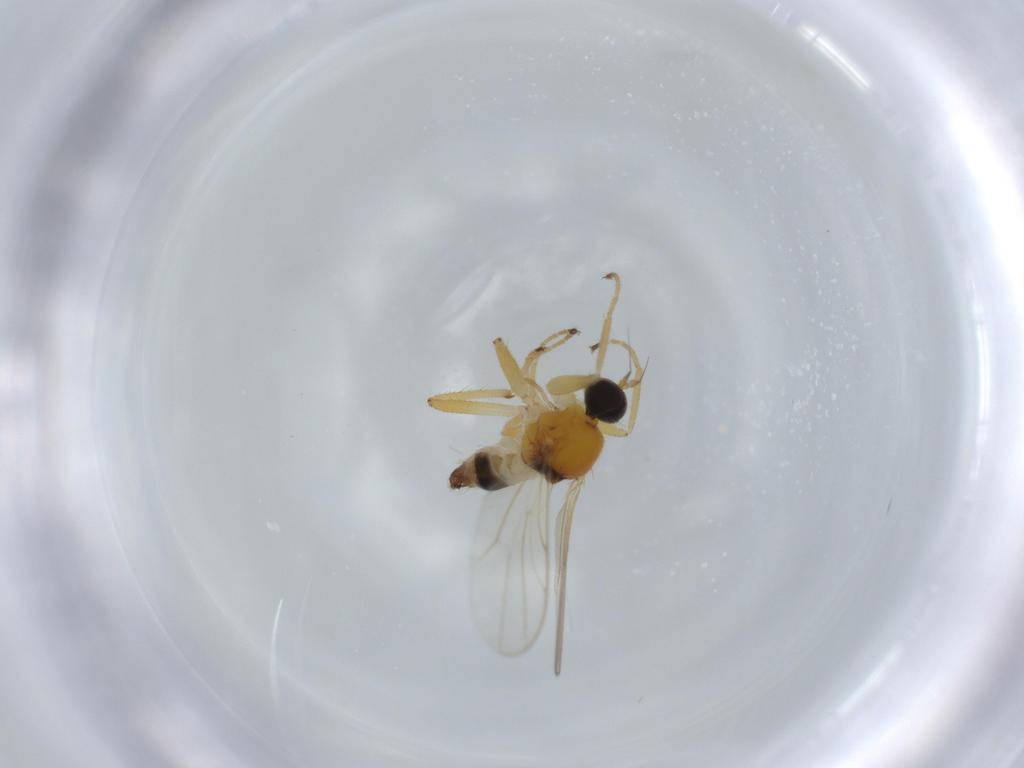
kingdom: Animalia
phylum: Arthropoda
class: Insecta
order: Diptera
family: Hybotidae
